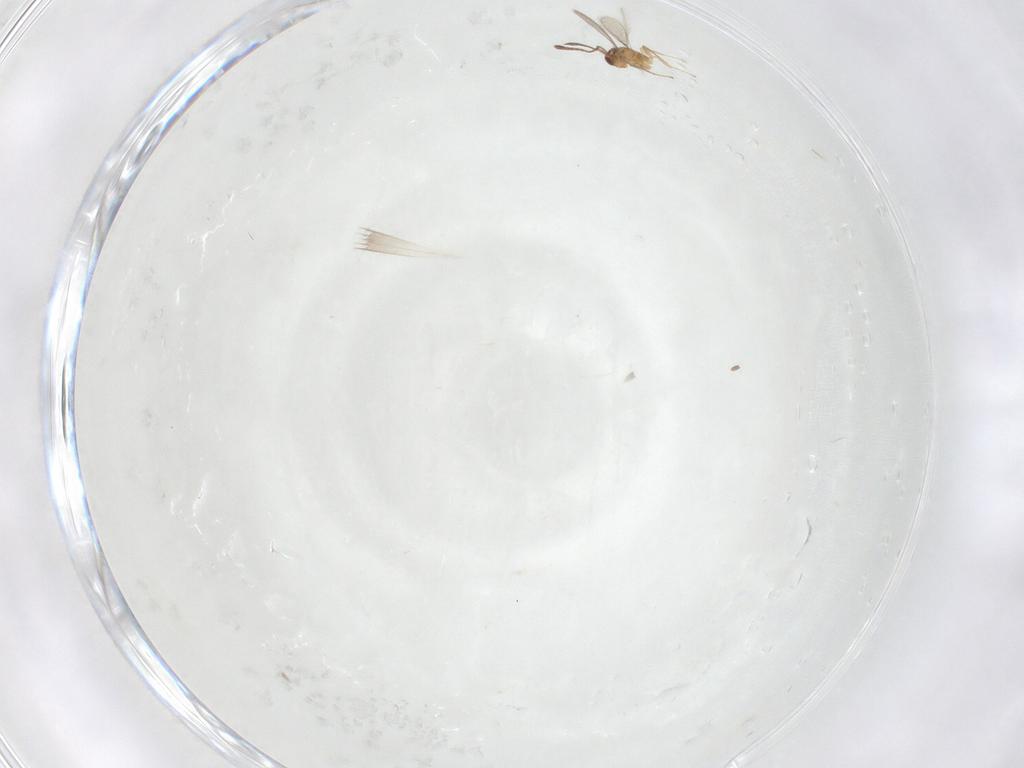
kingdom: Animalia
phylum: Arthropoda
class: Insecta
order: Hymenoptera
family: Mymaridae
